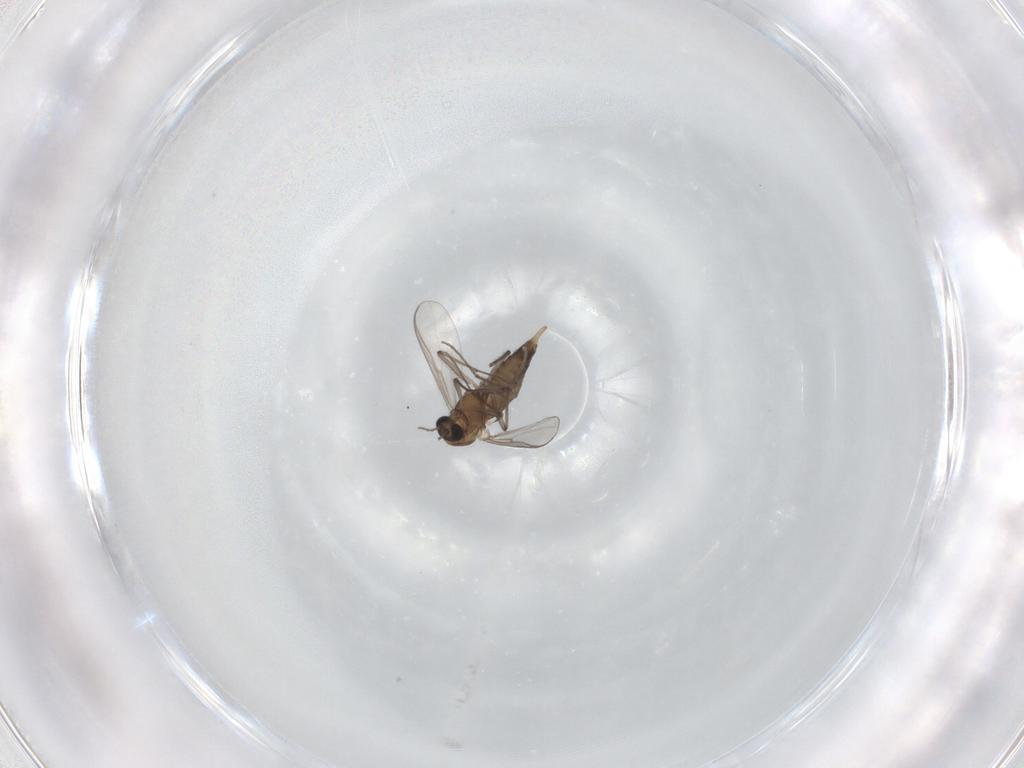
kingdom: Animalia
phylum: Arthropoda
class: Insecta
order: Diptera
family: Chironomidae
